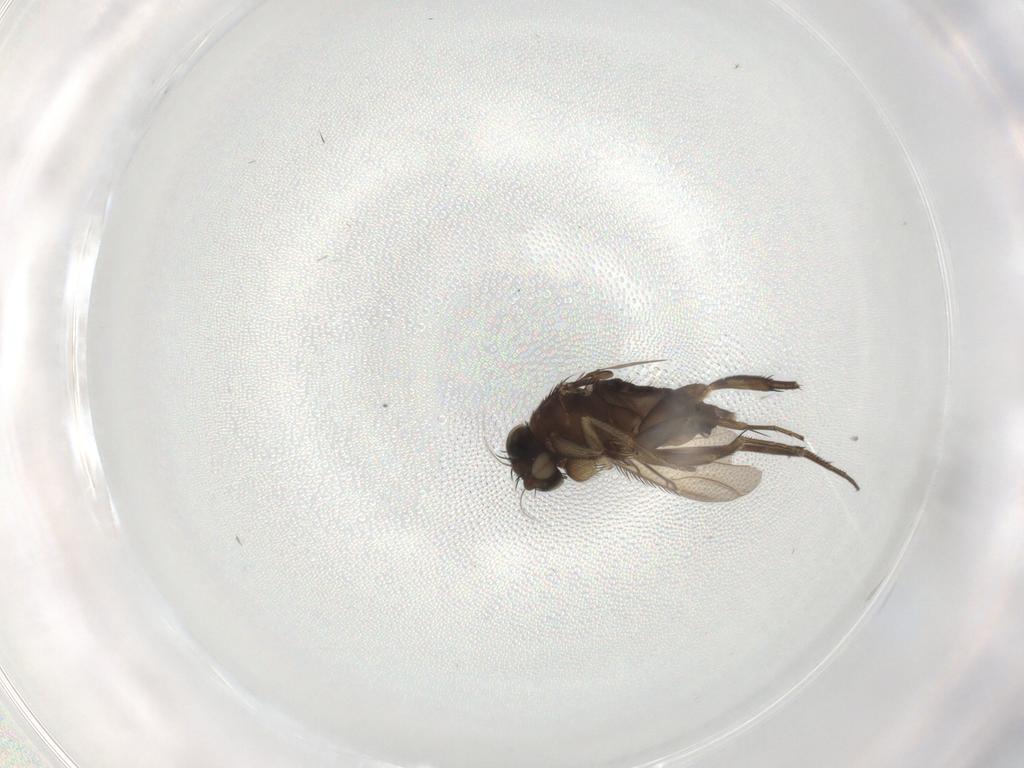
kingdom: Animalia
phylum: Arthropoda
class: Insecta
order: Diptera
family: Phoridae
